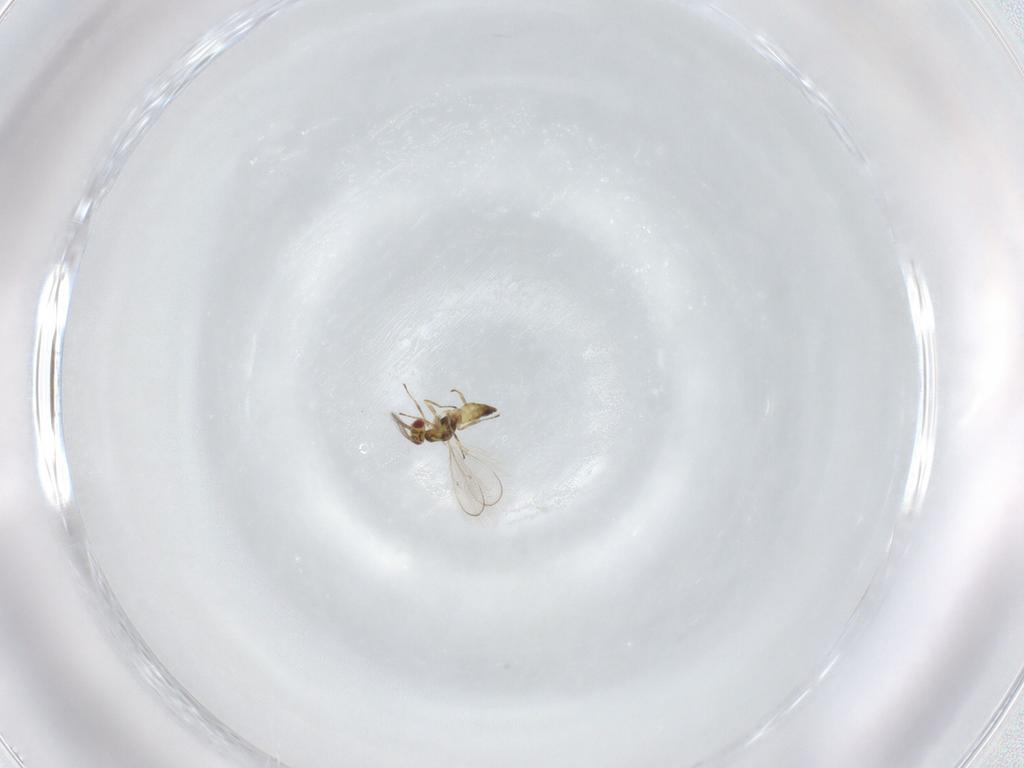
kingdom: Animalia
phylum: Arthropoda
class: Insecta
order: Hymenoptera
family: Eulophidae
